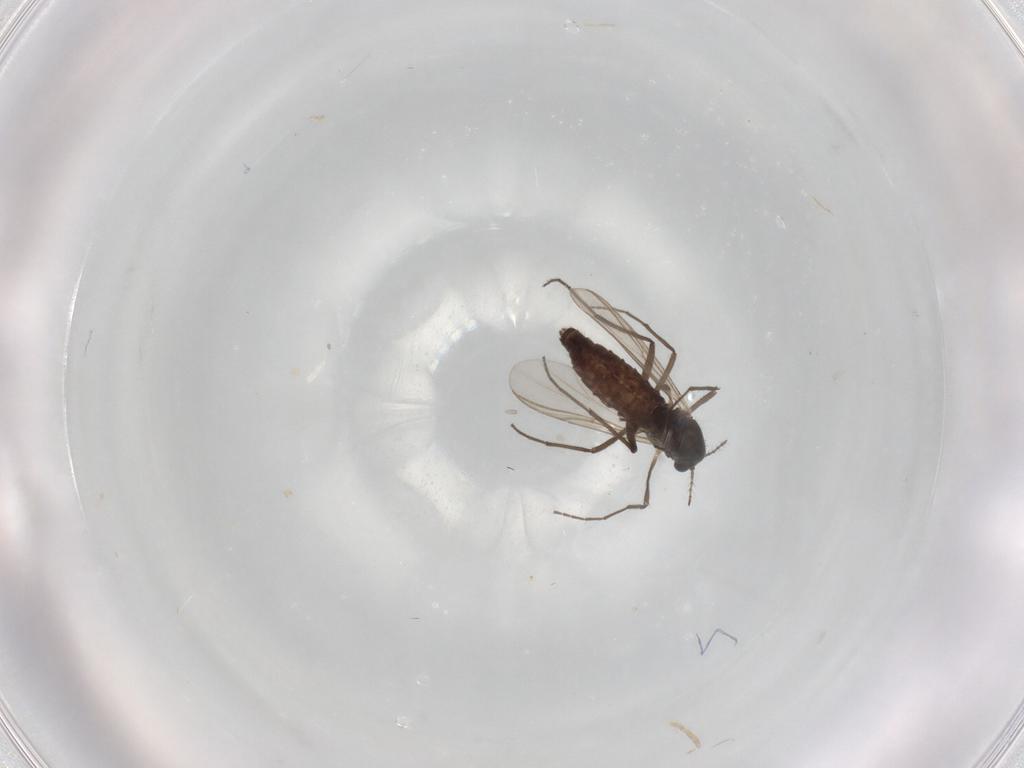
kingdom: Animalia
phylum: Arthropoda
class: Insecta
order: Diptera
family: Chironomidae
